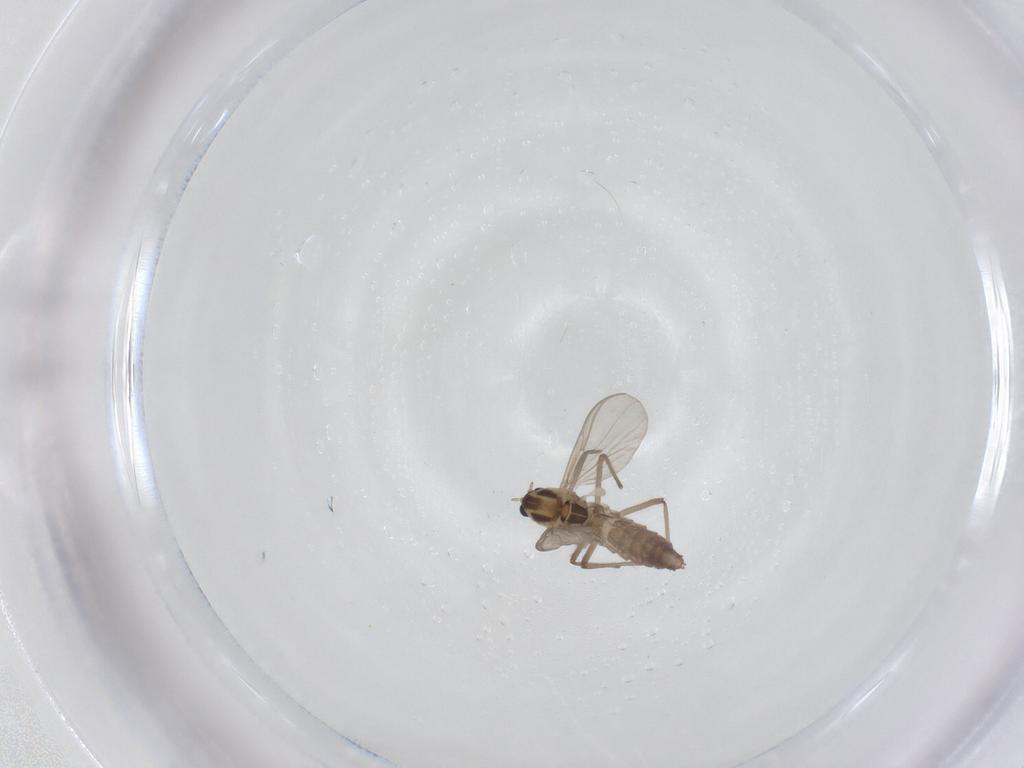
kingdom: Animalia
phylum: Arthropoda
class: Insecta
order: Diptera
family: Chironomidae
